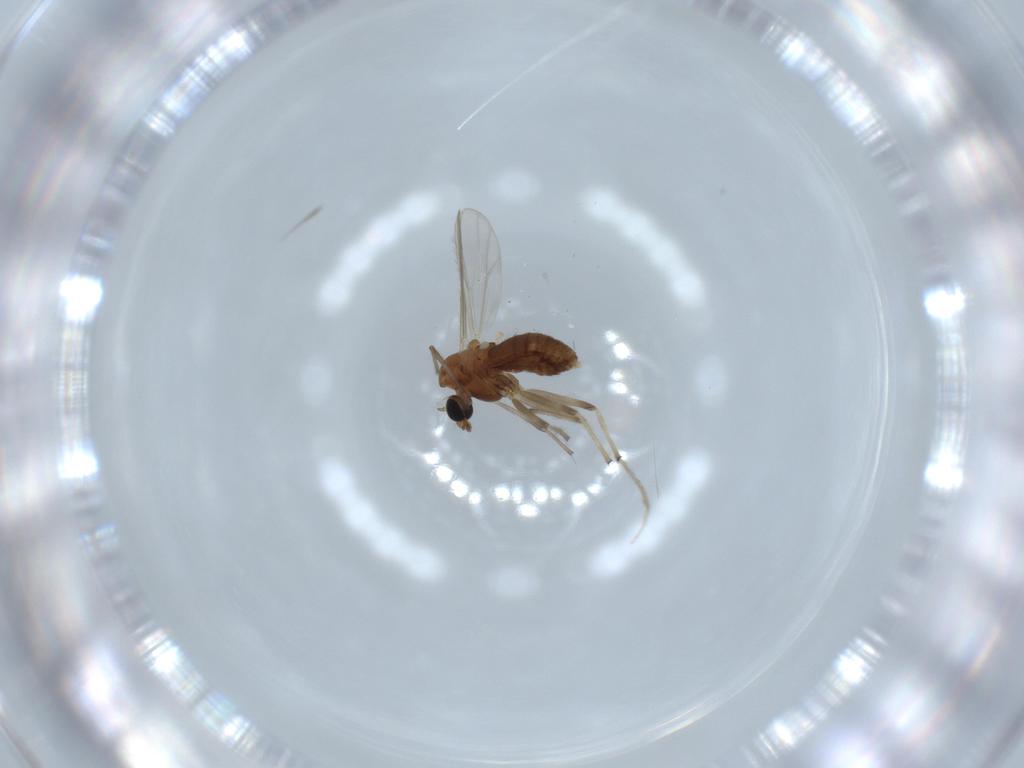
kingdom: Animalia
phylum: Arthropoda
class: Insecta
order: Diptera
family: Chironomidae
